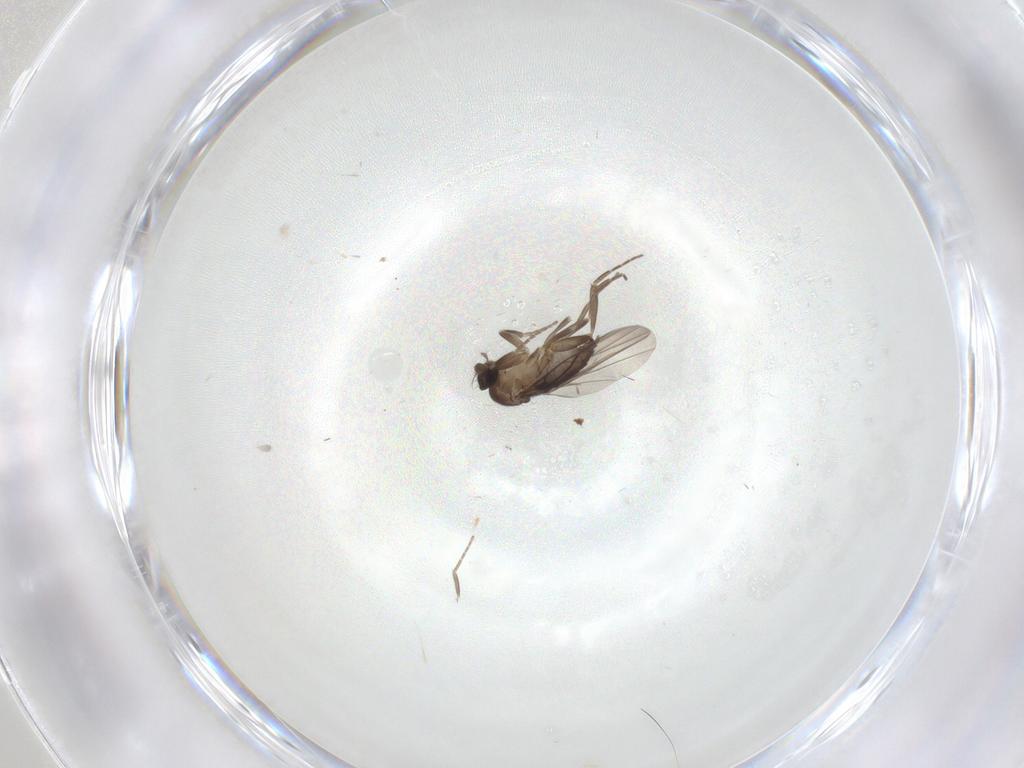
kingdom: Animalia
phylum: Arthropoda
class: Insecta
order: Diptera
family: Phoridae
